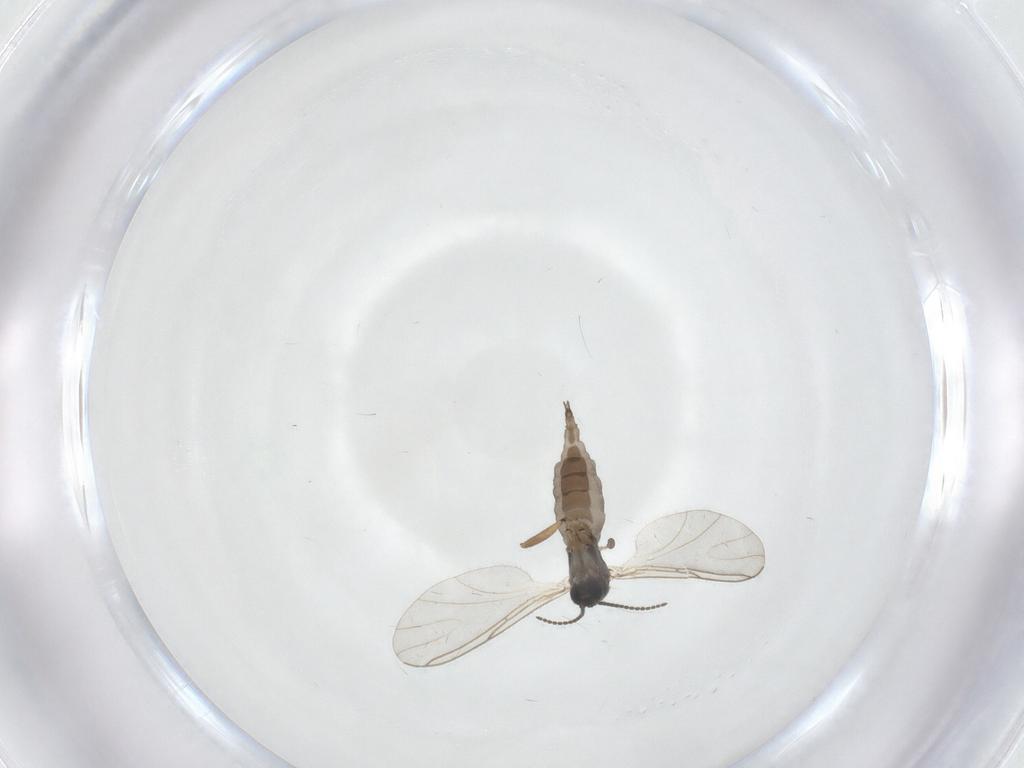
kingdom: Animalia
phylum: Arthropoda
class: Insecta
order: Diptera
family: Sciaridae
